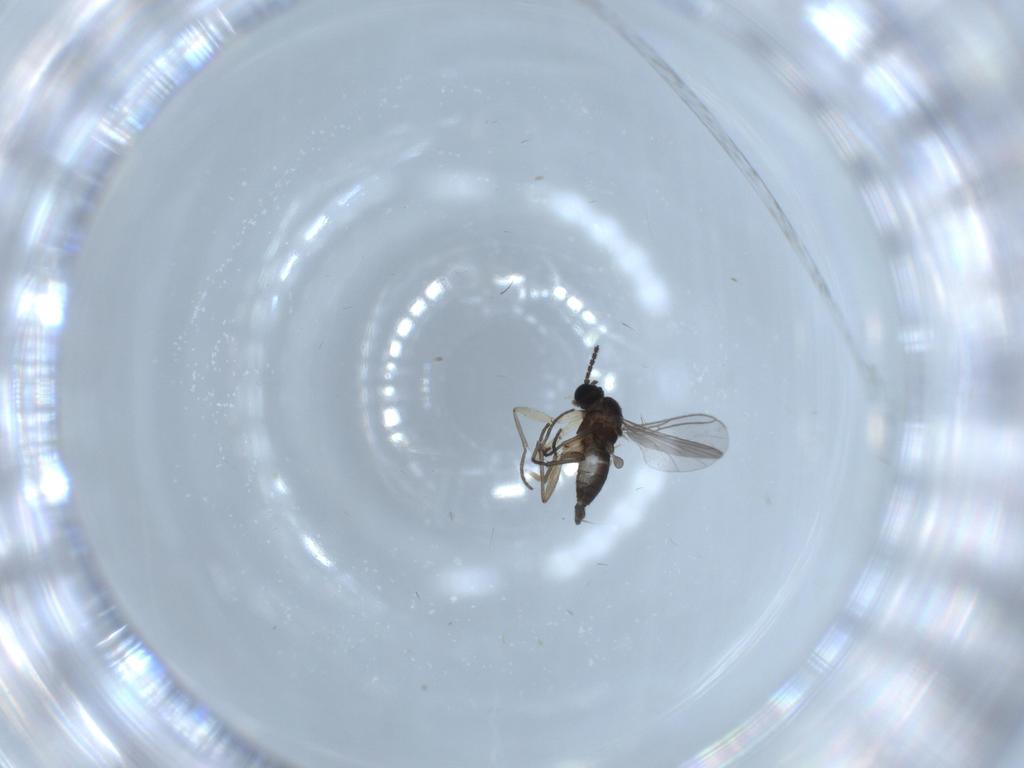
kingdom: Animalia
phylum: Arthropoda
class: Insecta
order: Diptera
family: Sciaridae
